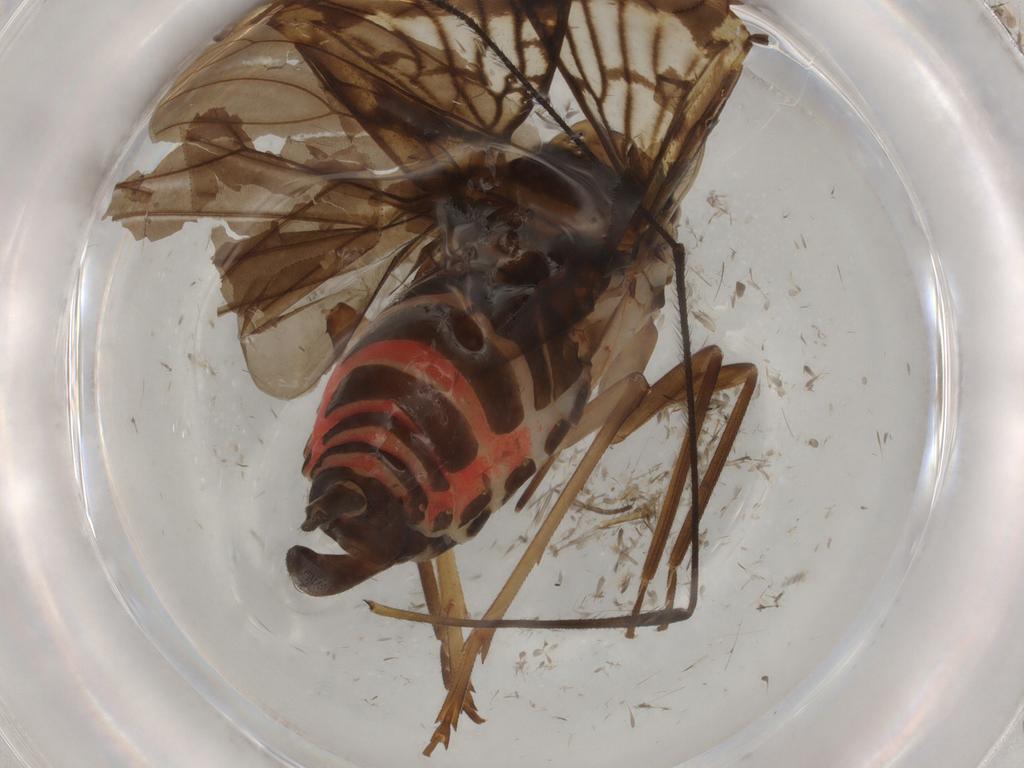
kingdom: Animalia
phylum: Arthropoda
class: Insecta
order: Hemiptera
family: Cixiidae
